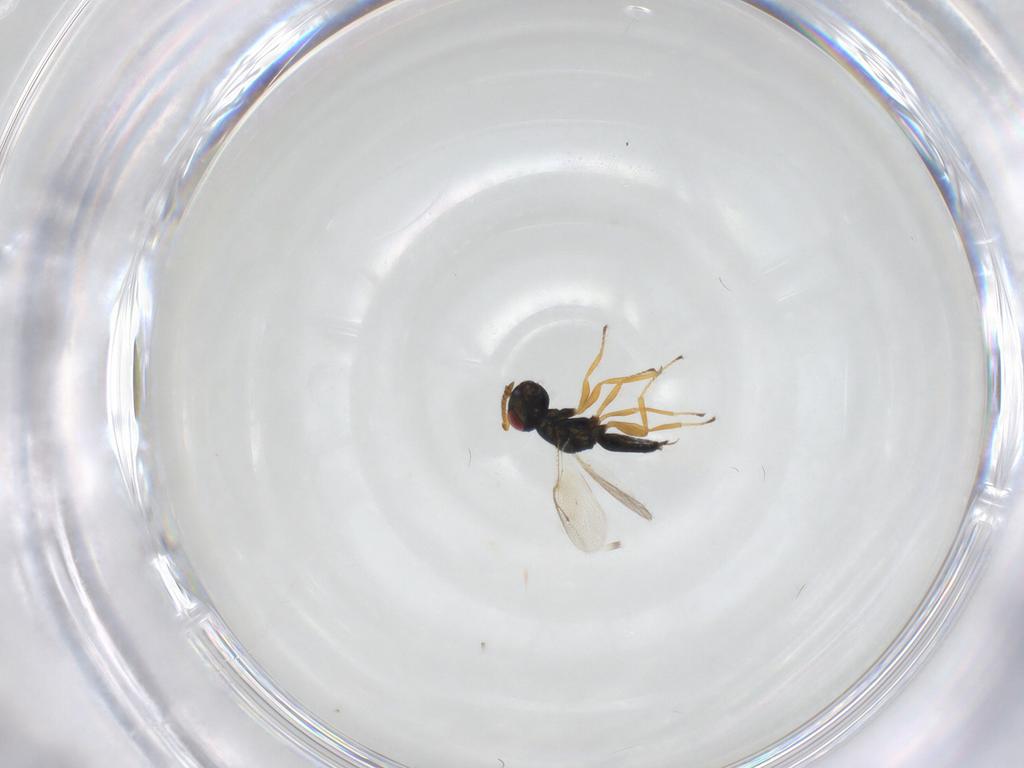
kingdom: Animalia
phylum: Arthropoda
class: Insecta
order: Hymenoptera
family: Pteromalidae
